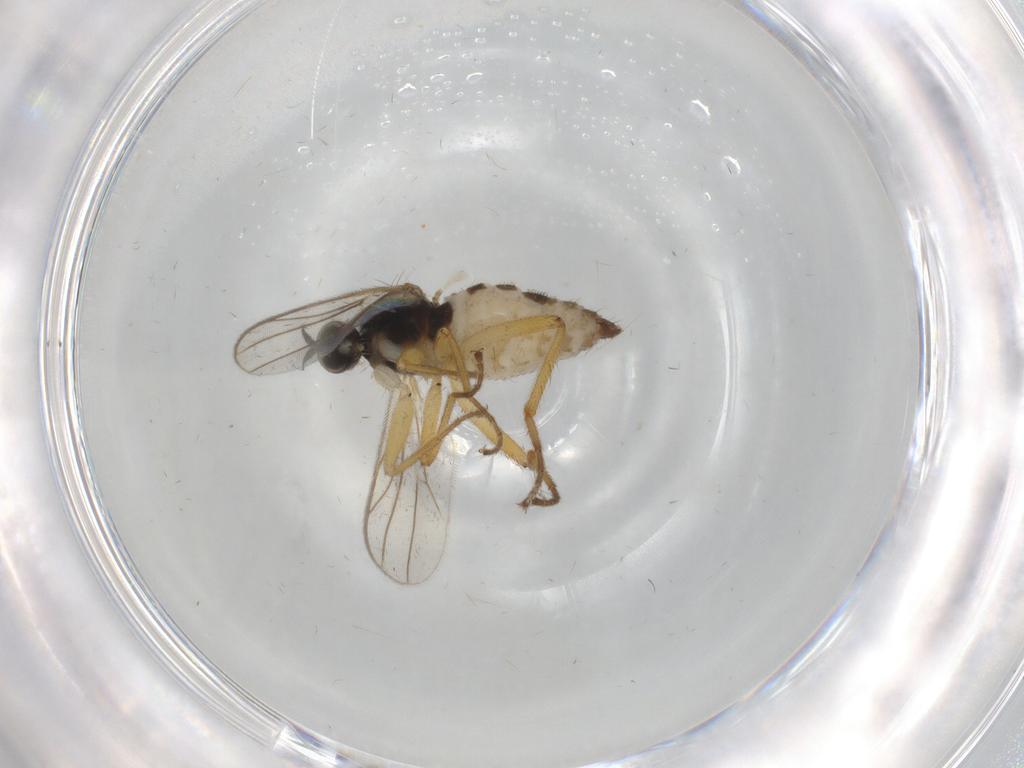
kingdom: Animalia
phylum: Arthropoda
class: Insecta
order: Diptera
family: Hybotidae
